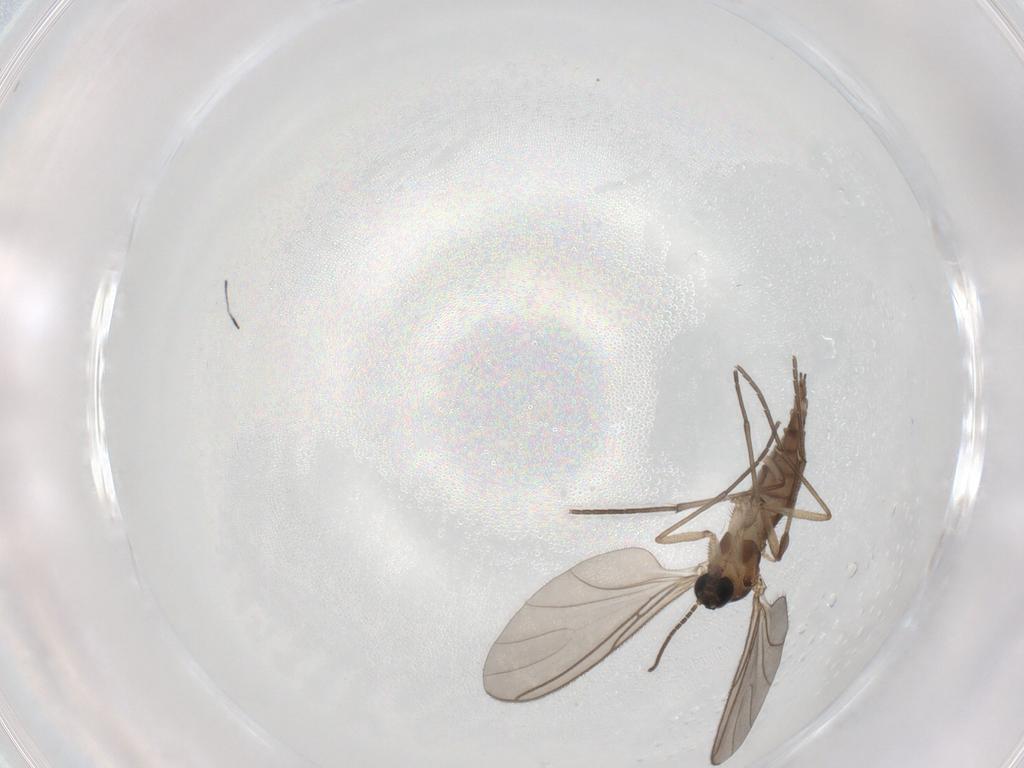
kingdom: Animalia
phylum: Arthropoda
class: Insecta
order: Diptera
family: Sciaridae
